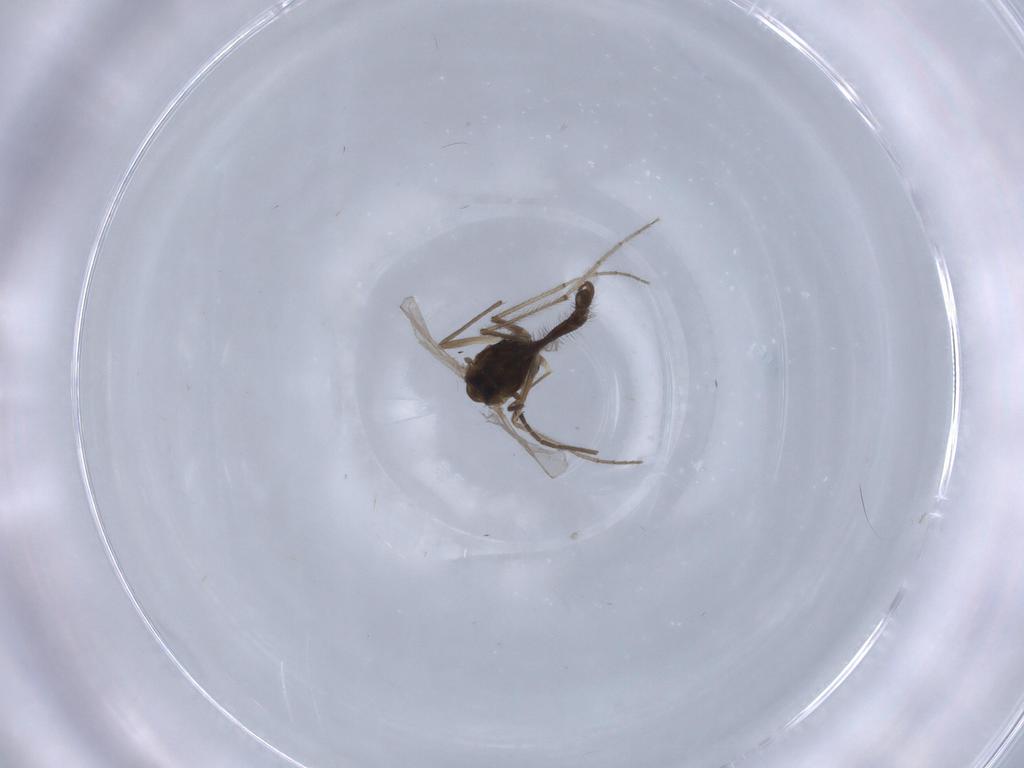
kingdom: Animalia
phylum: Arthropoda
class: Insecta
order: Diptera
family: Chironomidae
